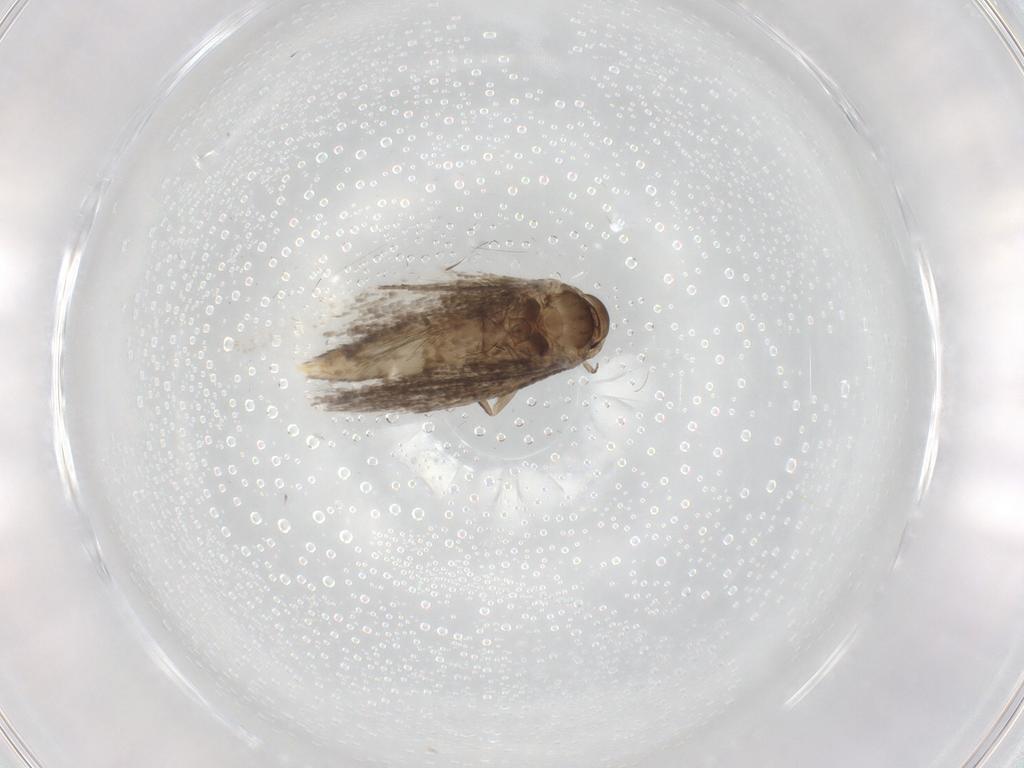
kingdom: Animalia
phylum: Arthropoda
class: Insecta
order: Lepidoptera
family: Elachistidae
